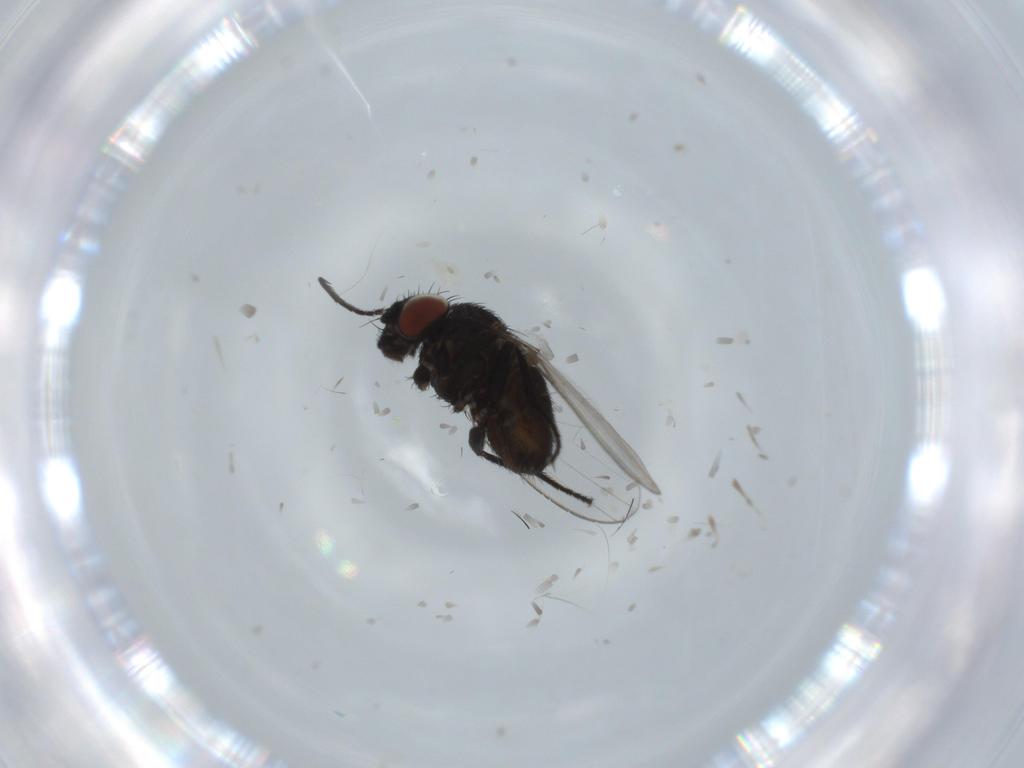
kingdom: Animalia
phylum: Arthropoda
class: Insecta
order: Diptera
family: Milichiidae
